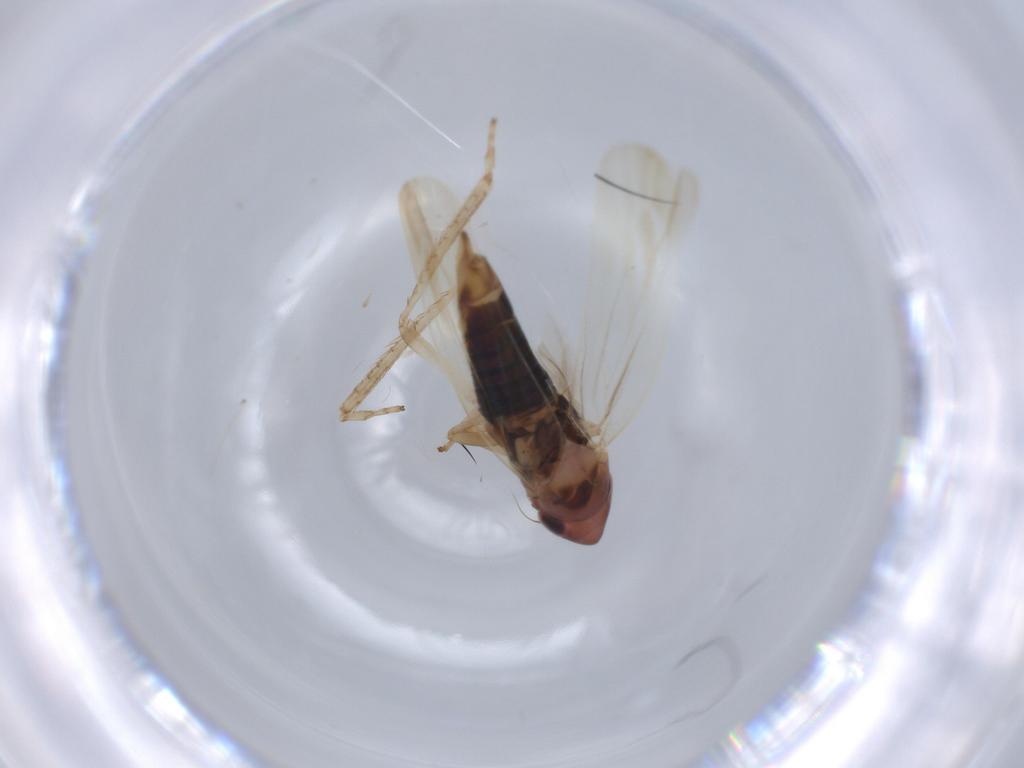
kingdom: Animalia
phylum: Arthropoda
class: Insecta
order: Hemiptera
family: Cicadellidae
